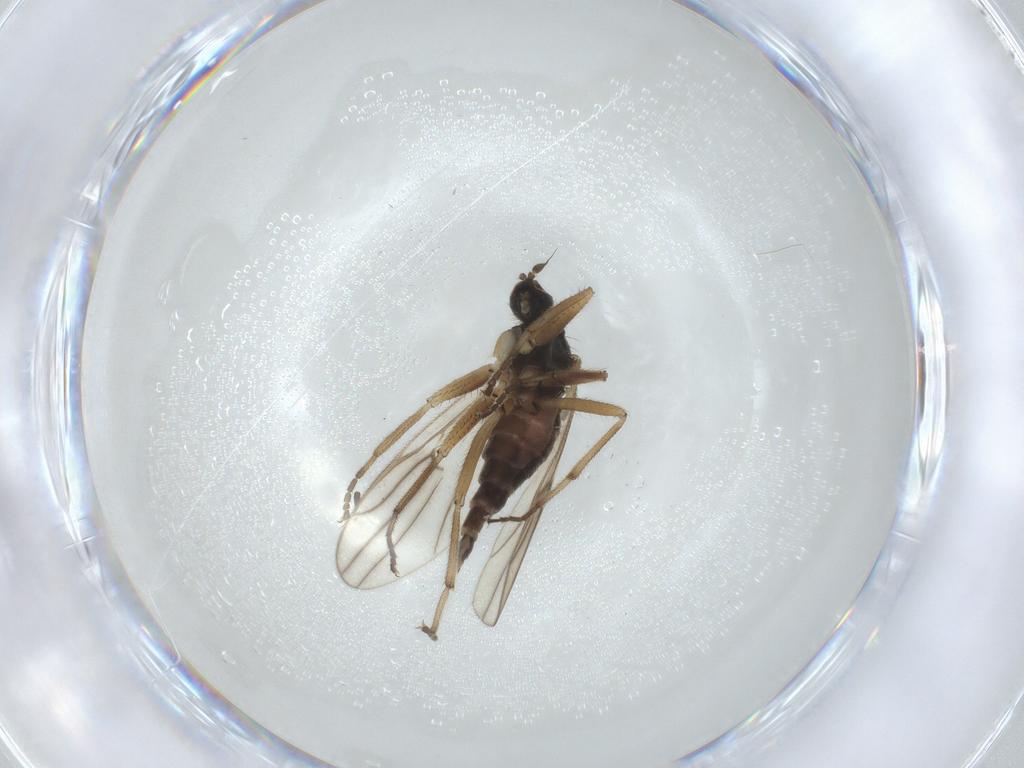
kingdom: Animalia
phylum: Arthropoda
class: Insecta
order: Diptera
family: Hybotidae
